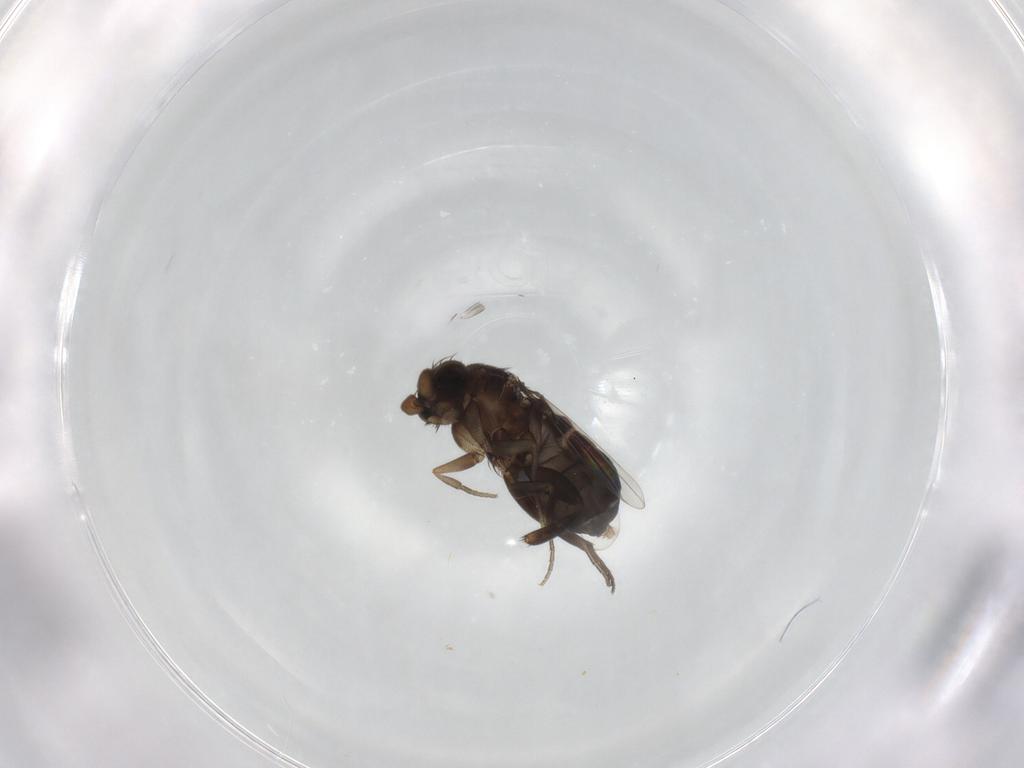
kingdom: Animalia
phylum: Arthropoda
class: Insecta
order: Diptera
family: Phoridae
